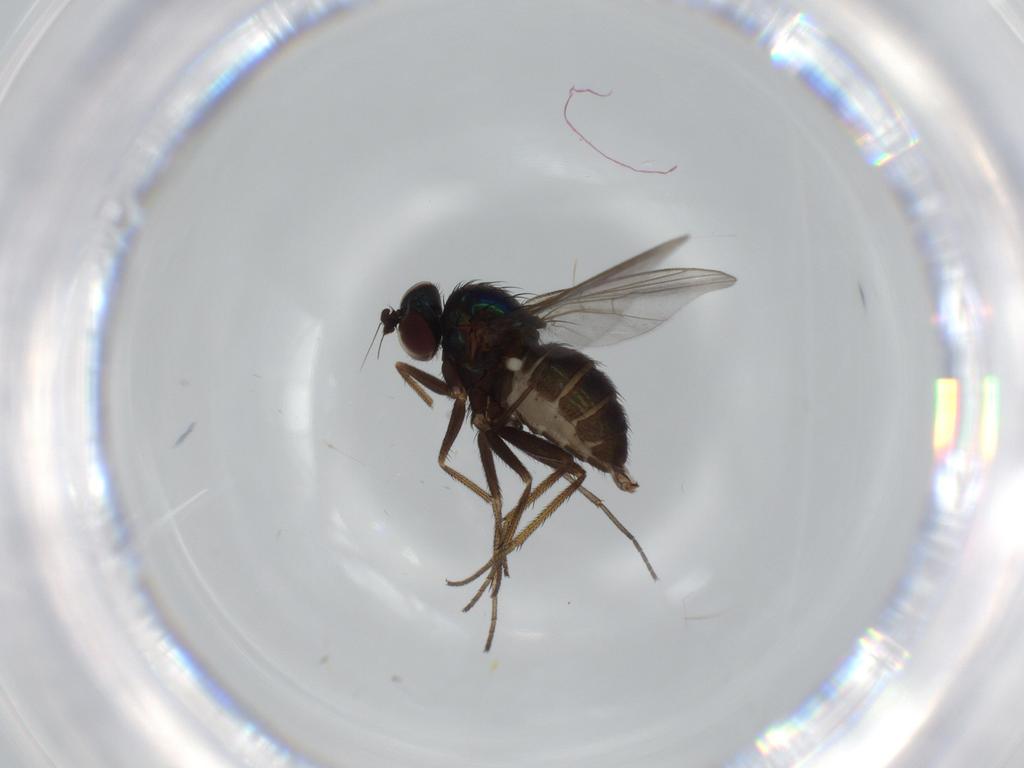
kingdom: Animalia
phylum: Arthropoda
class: Insecta
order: Diptera
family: Dolichopodidae
